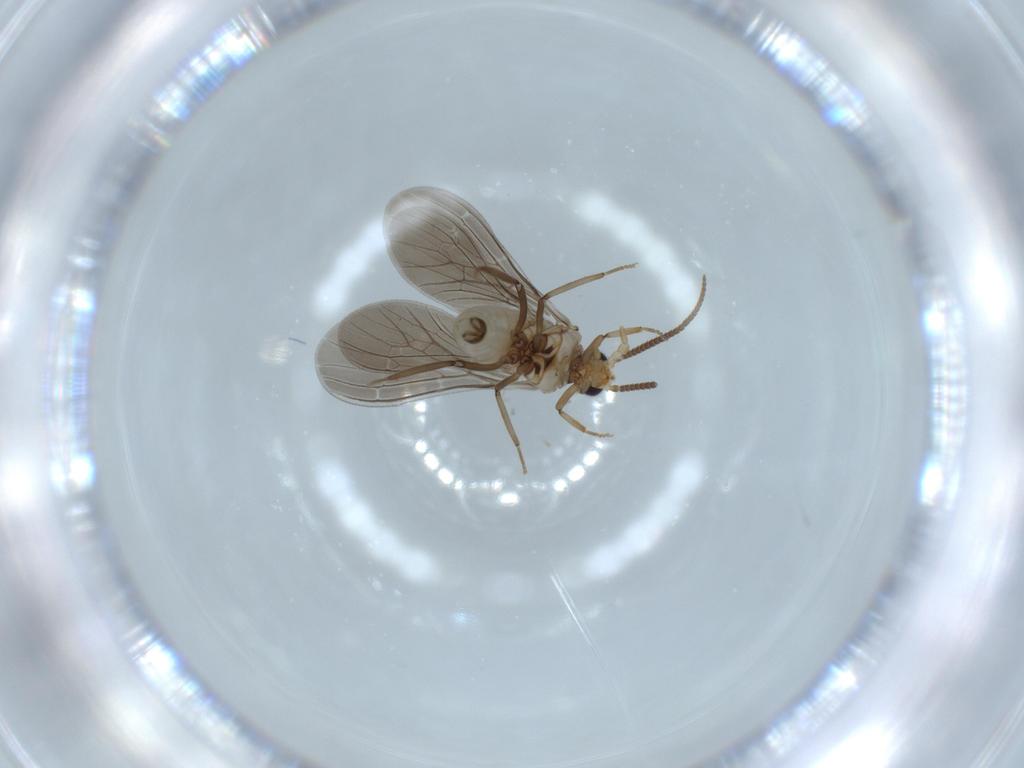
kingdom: Animalia
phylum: Arthropoda
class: Insecta
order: Neuroptera
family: Coniopterygidae
